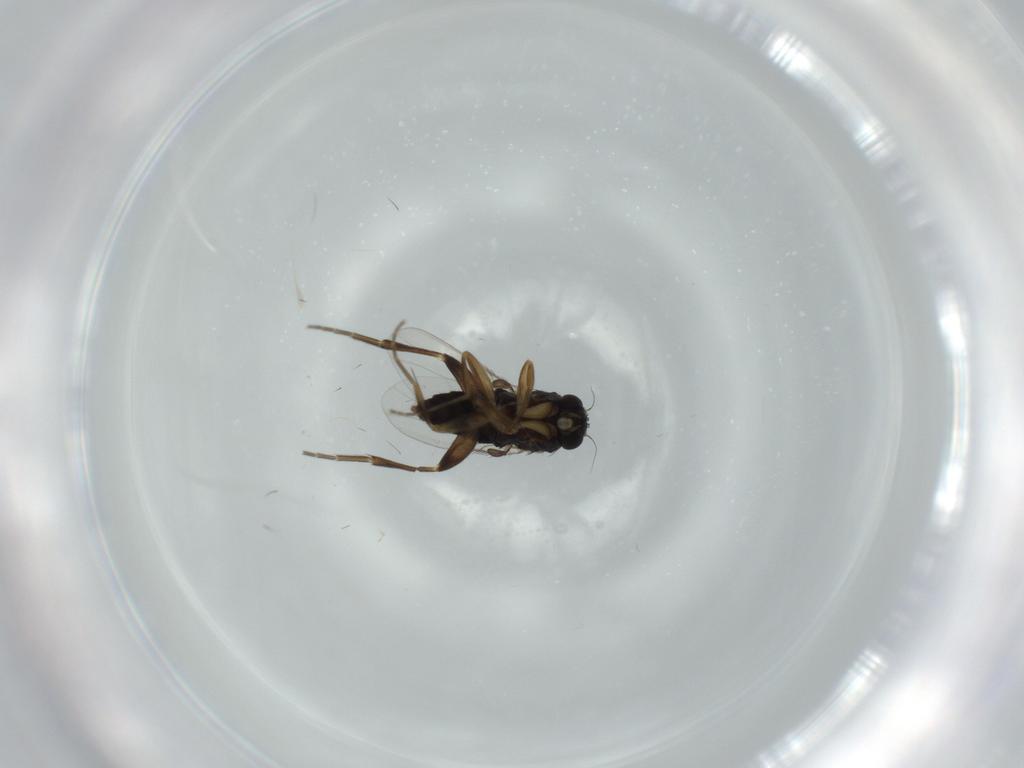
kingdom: Animalia
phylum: Arthropoda
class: Insecta
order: Diptera
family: Phoridae
